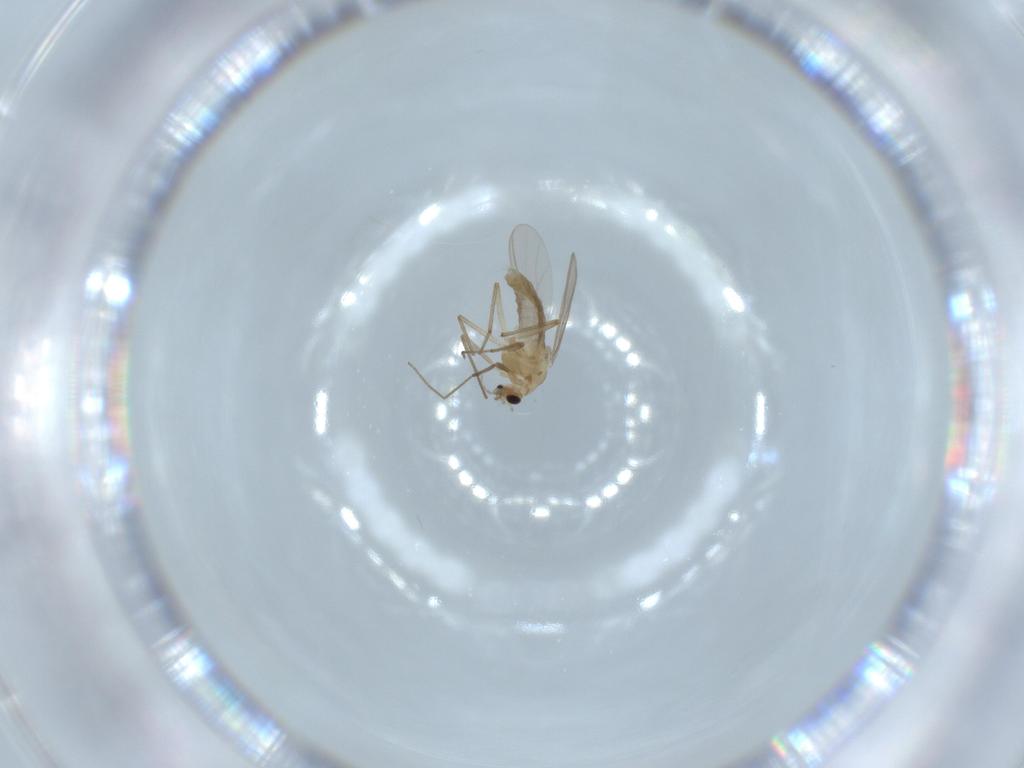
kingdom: Animalia
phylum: Arthropoda
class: Insecta
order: Diptera
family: Chironomidae
